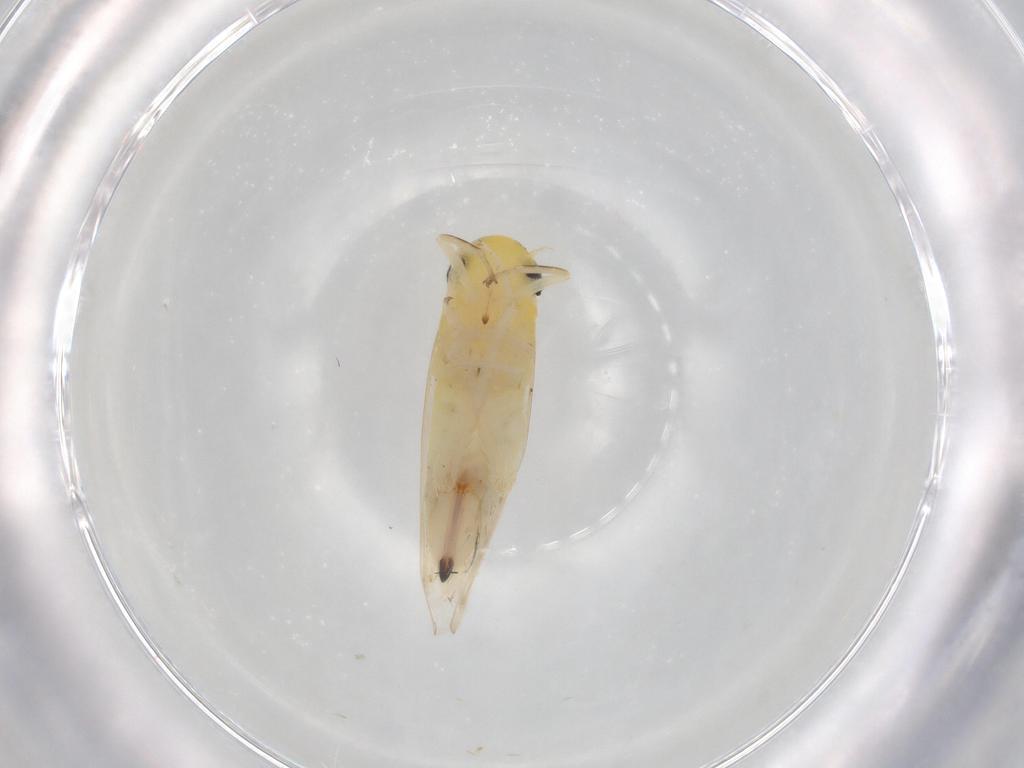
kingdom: Animalia
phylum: Arthropoda
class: Insecta
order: Hemiptera
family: Cicadellidae
